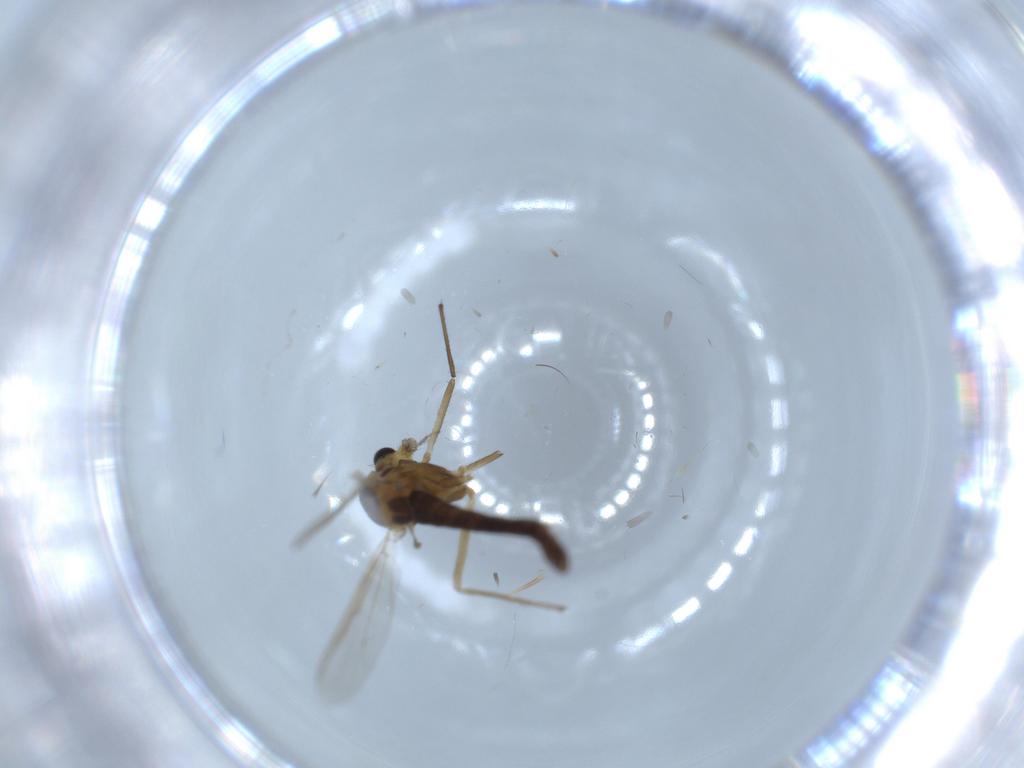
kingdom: Animalia
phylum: Arthropoda
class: Insecta
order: Diptera
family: Chironomidae
